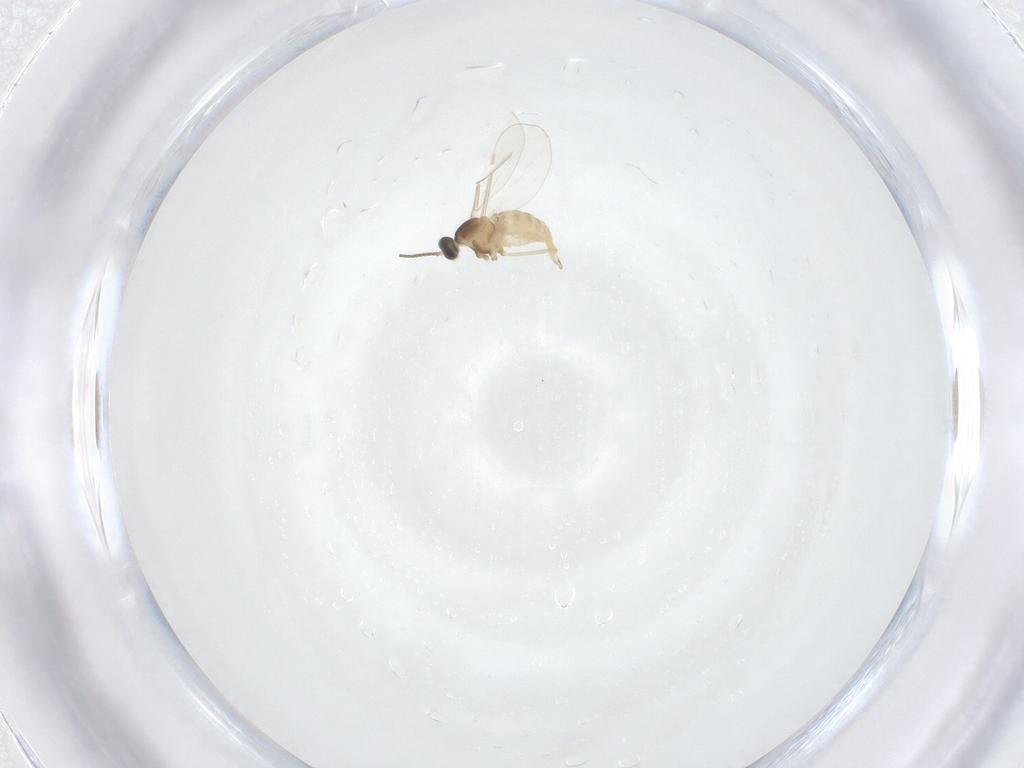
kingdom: Animalia
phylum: Arthropoda
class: Insecta
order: Diptera
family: Cecidomyiidae
